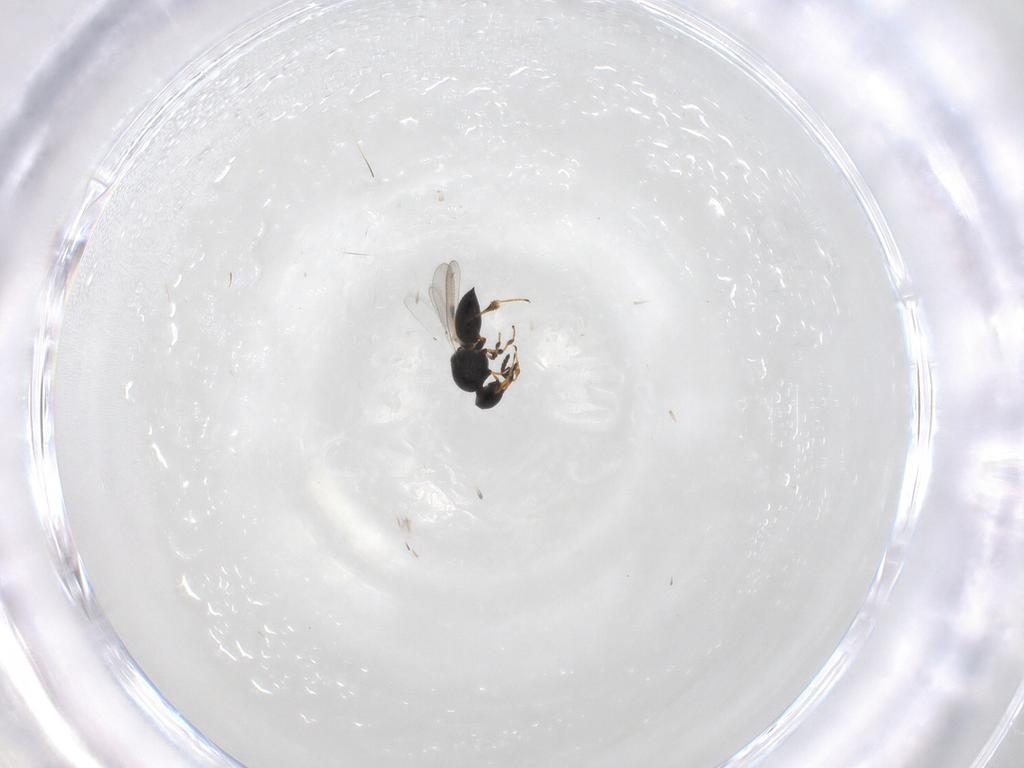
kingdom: Animalia
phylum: Arthropoda
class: Insecta
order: Hymenoptera
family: Platygastridae
